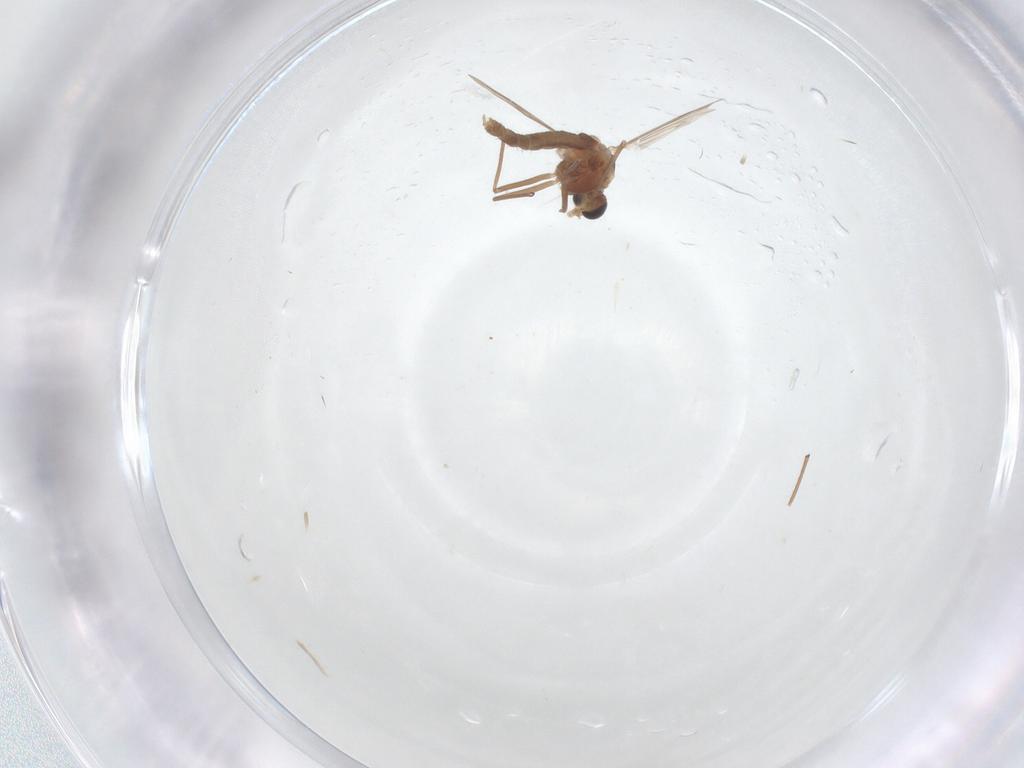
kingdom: Animalia
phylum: Arthropoda
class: Insecta
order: Diptera
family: Chironomidae
